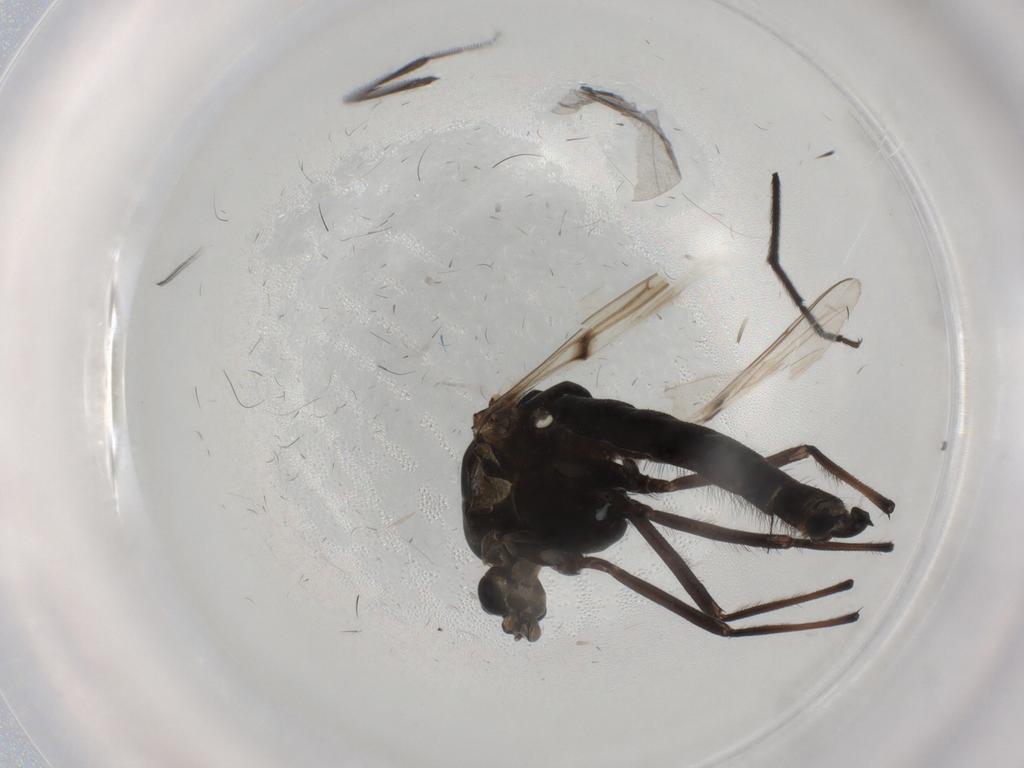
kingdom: Animalia
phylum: Arthropoda
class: Insecta
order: Diptera
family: Chironomidae
